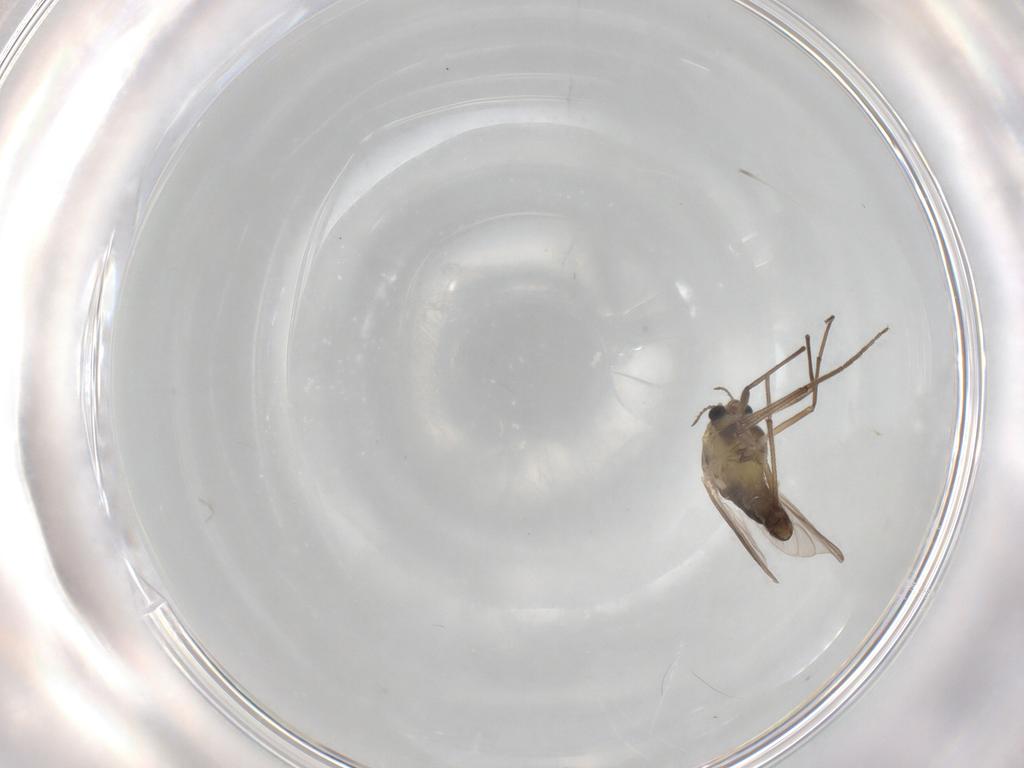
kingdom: Animalia
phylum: Arthropoda
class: Insecta
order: Diptera
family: Chironomidae
